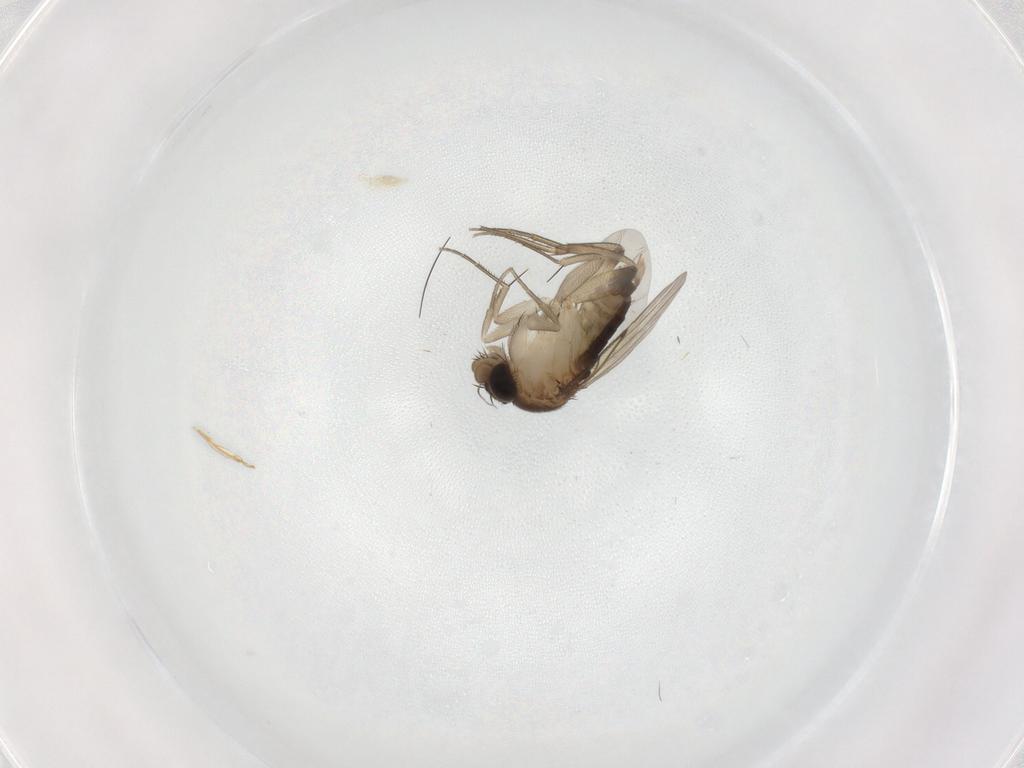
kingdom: Animalia
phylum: Arthropoda
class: Insecta
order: Diptera
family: Phoridae
